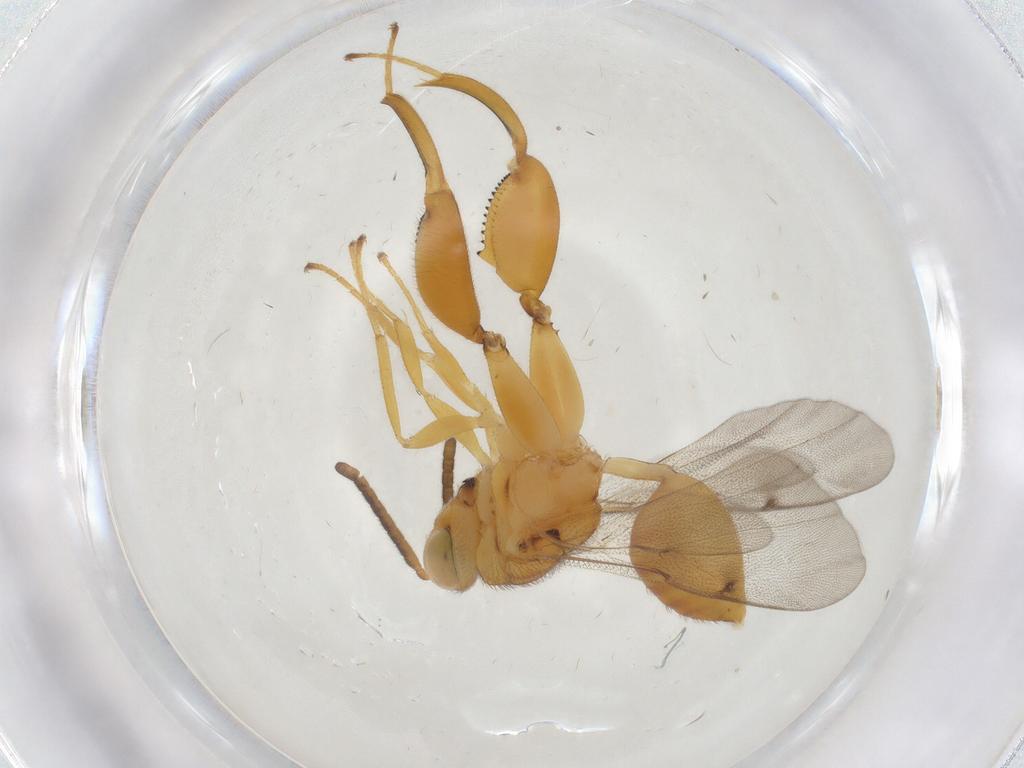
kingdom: Animalia
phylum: Arthropoda
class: Insecta
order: Hymenoptera
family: Chalcididae
